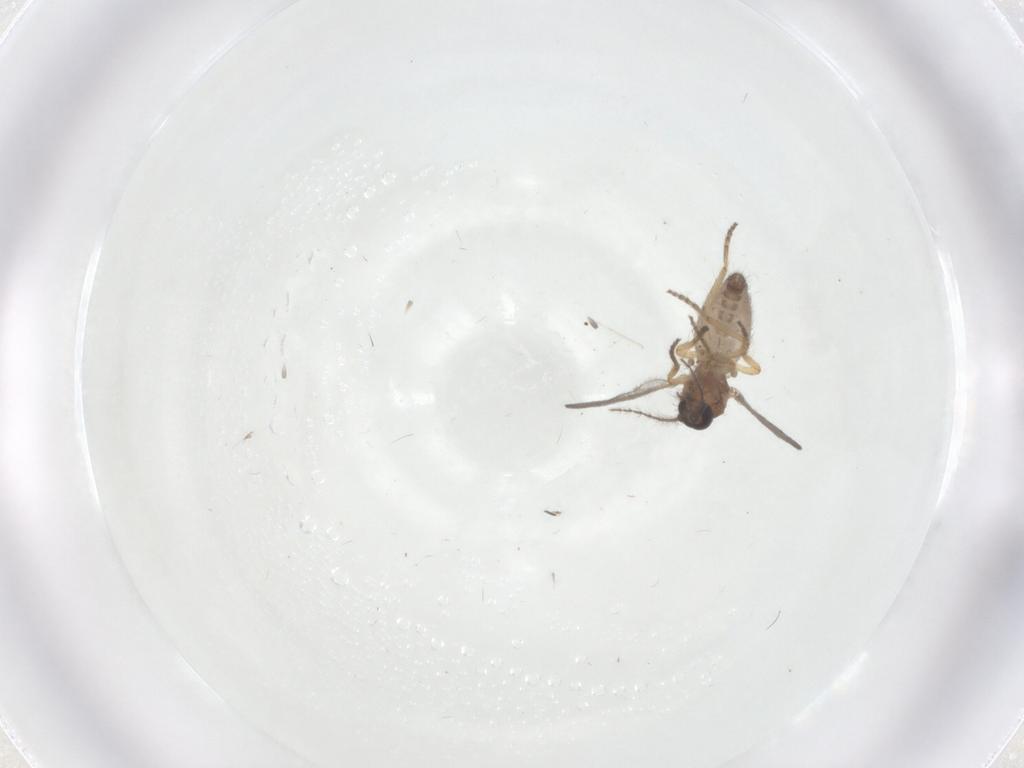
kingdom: Animalia
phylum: Arthropoda
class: Insecta
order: Diptera
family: Ceratopogonidae
